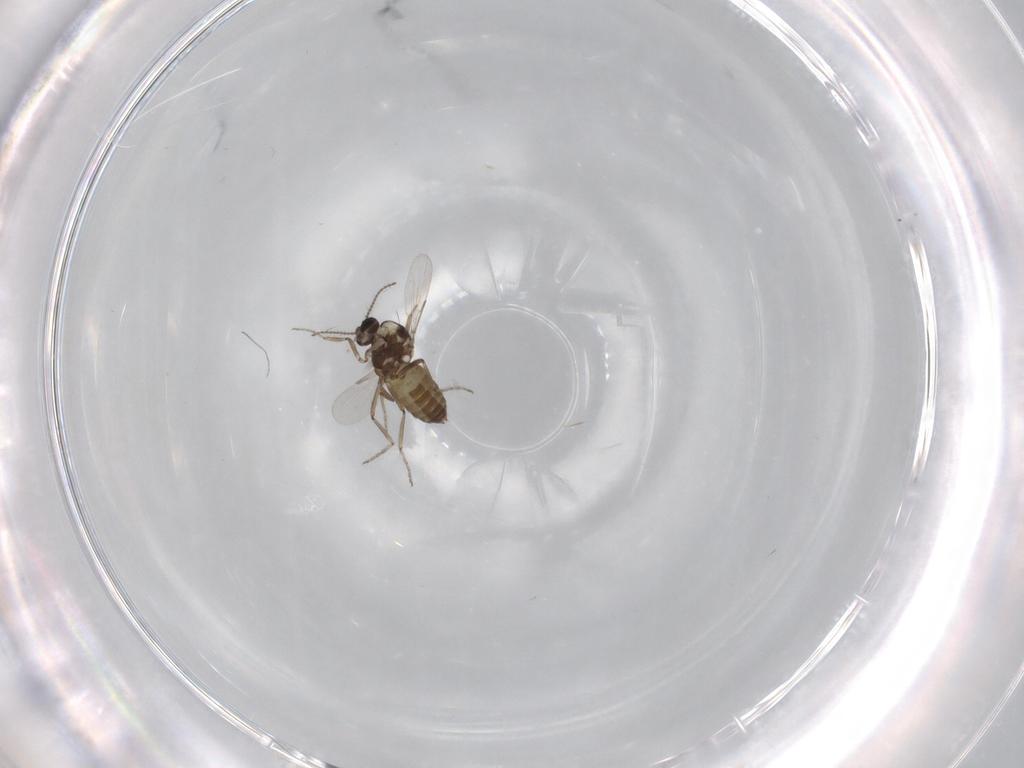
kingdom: Animalia
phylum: Arthropoda
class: Insecta
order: Diptera
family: Ceratopogonidae
